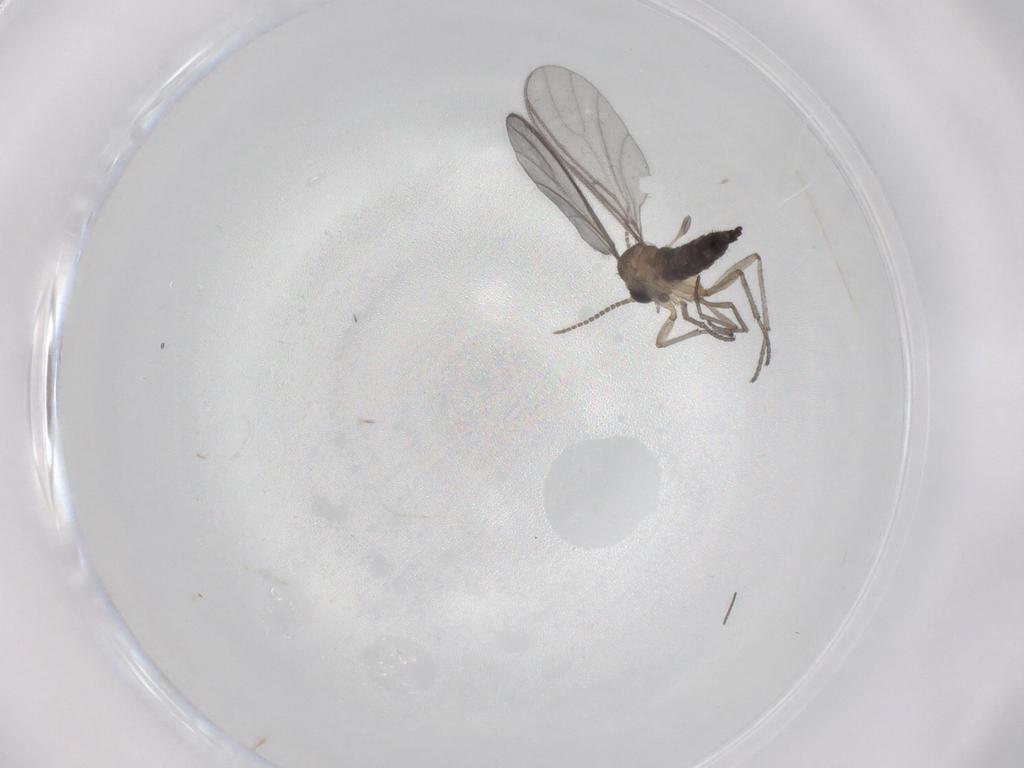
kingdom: Animalia
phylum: Arthropoda
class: Insecta
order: Diptera
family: Sciaridae
